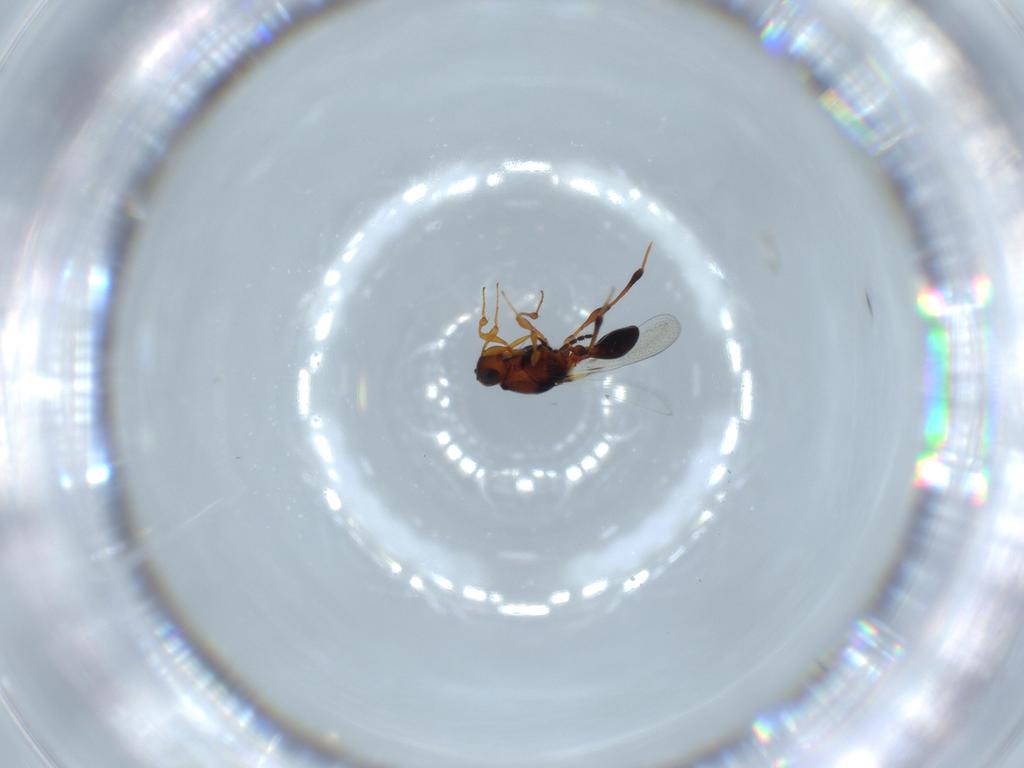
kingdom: Animalia
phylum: Arthropoda
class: Insecta
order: Hymenoptera
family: Platygastridae
